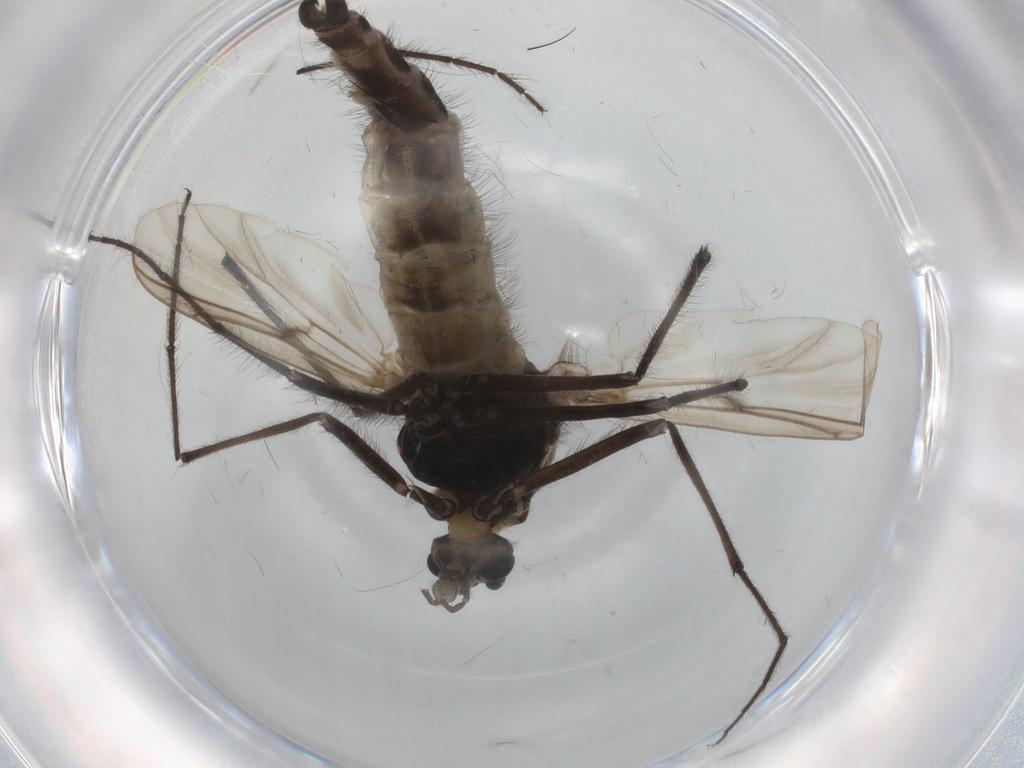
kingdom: Animalia
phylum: Arthropoda
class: Insecta
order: Diptera
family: Chironomidae
